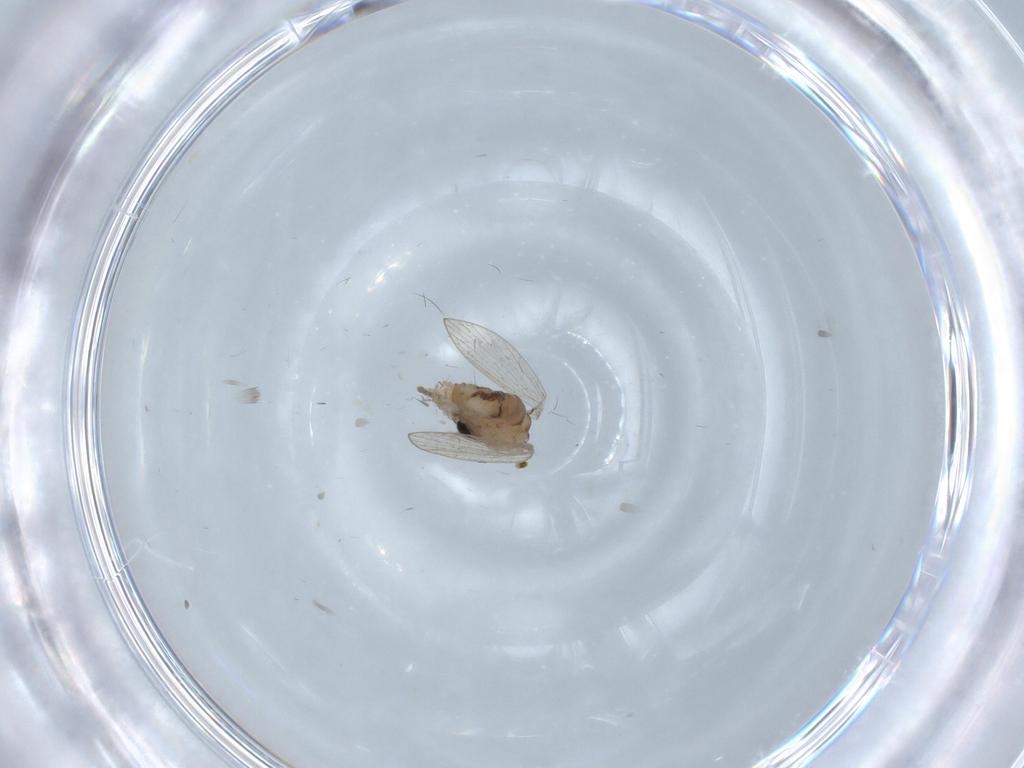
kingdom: Animalia
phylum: Arthropoda
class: Insecta
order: Diptera
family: Psychodidae
